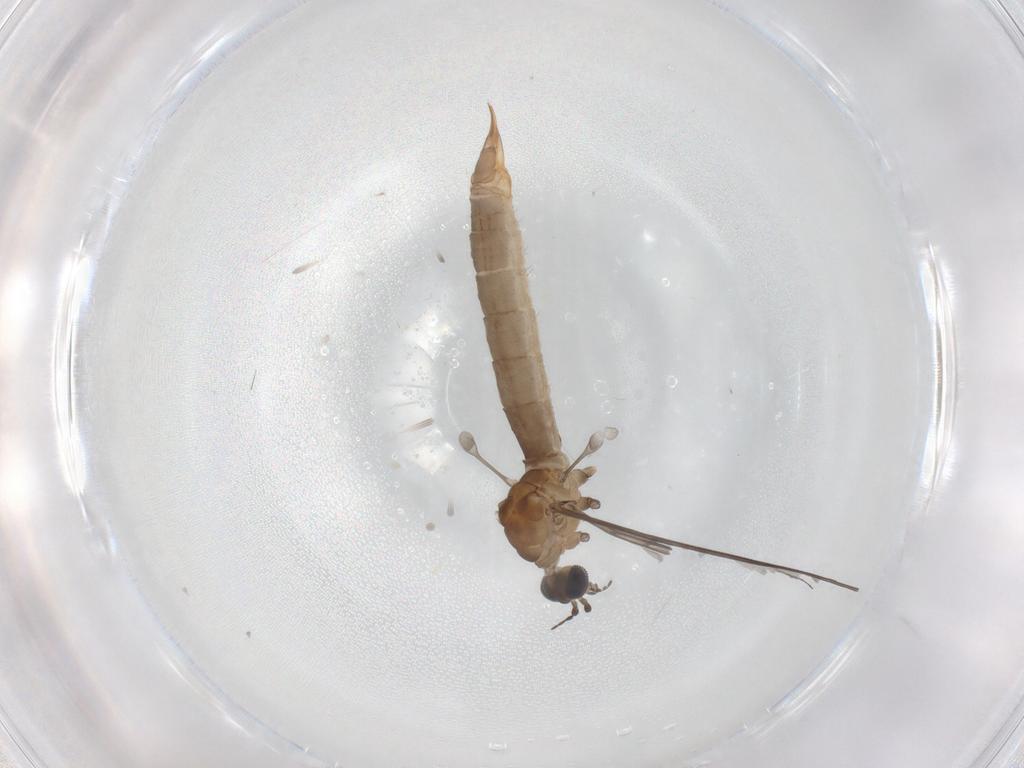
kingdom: Animalia
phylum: Arthropoda
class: Insecta
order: Diptera
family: Limoniidae
